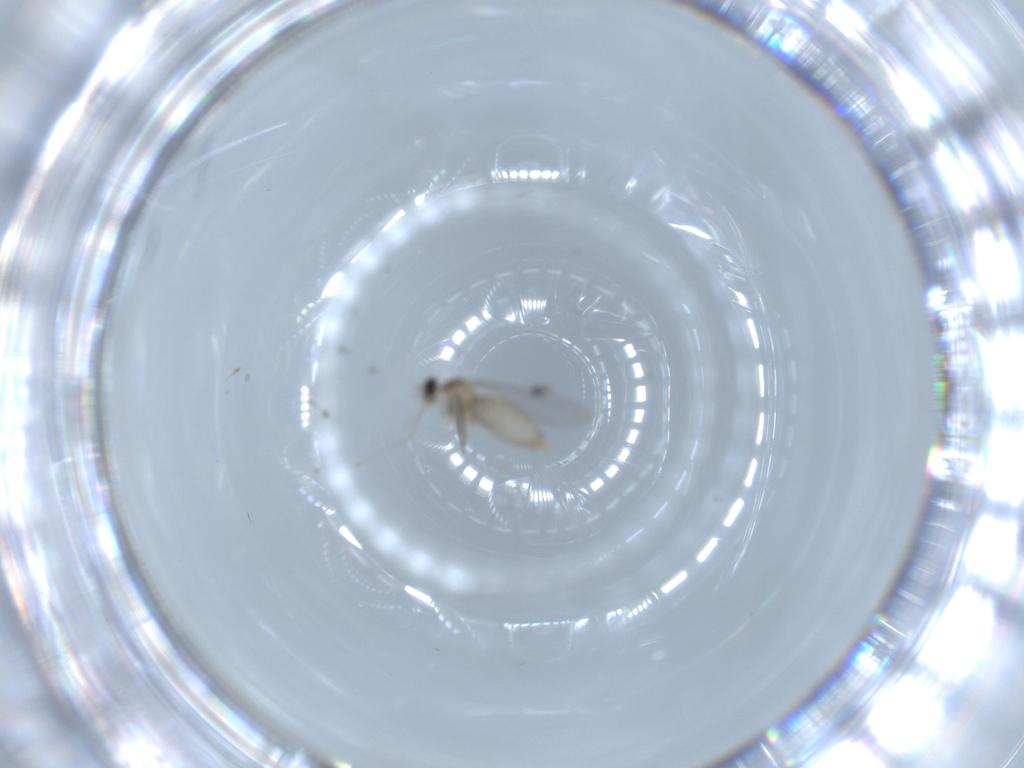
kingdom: Animalia
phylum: Arthropoda
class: Insecta
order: Diptera
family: Cecidomyiidae
